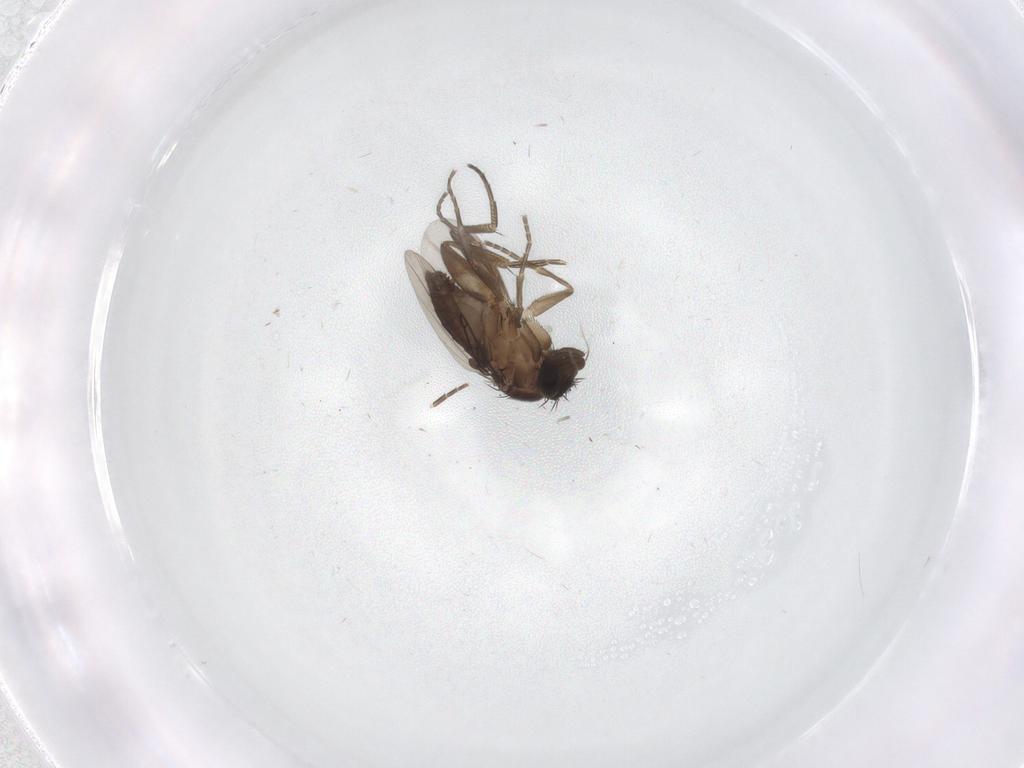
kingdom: Animalia
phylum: Arthropoda
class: Insecta
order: Diptera
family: Phoridae
